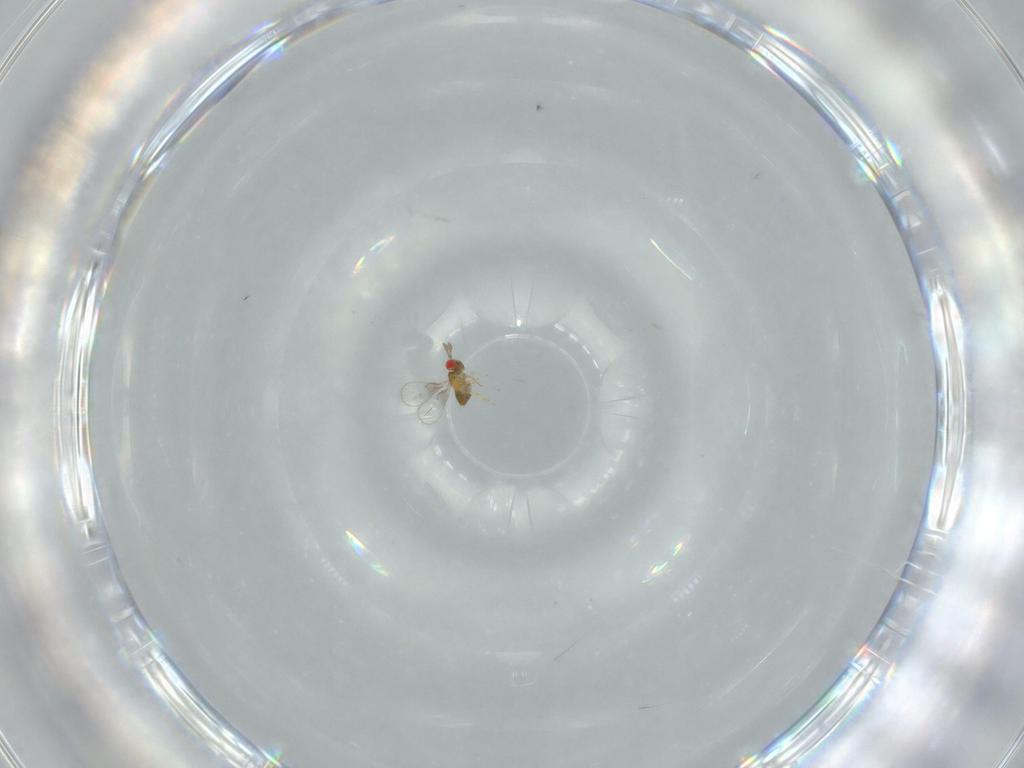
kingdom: Animalia
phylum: Arthropoda
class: Insecta
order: Hymenoptera
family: Trichogrammatidae
